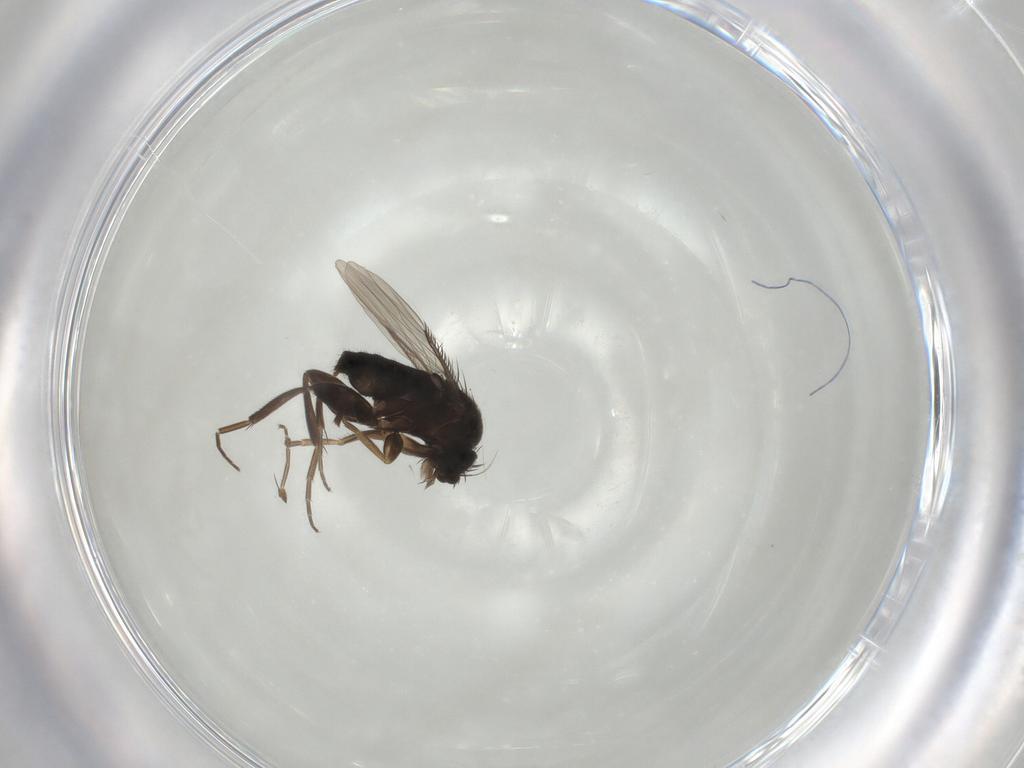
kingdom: Animalia
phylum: Arthropoda
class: Insecta
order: Diptera
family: Phoridae
